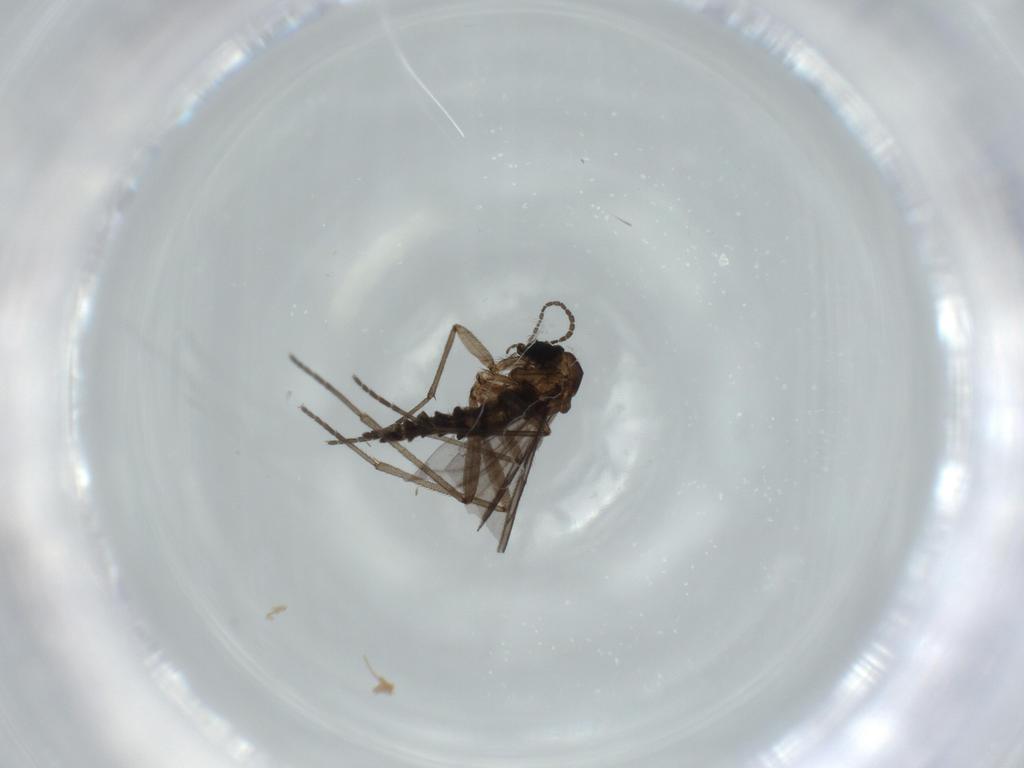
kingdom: Animalia
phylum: Arthropoda
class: Insecta
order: Diptera
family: Sciaridae
